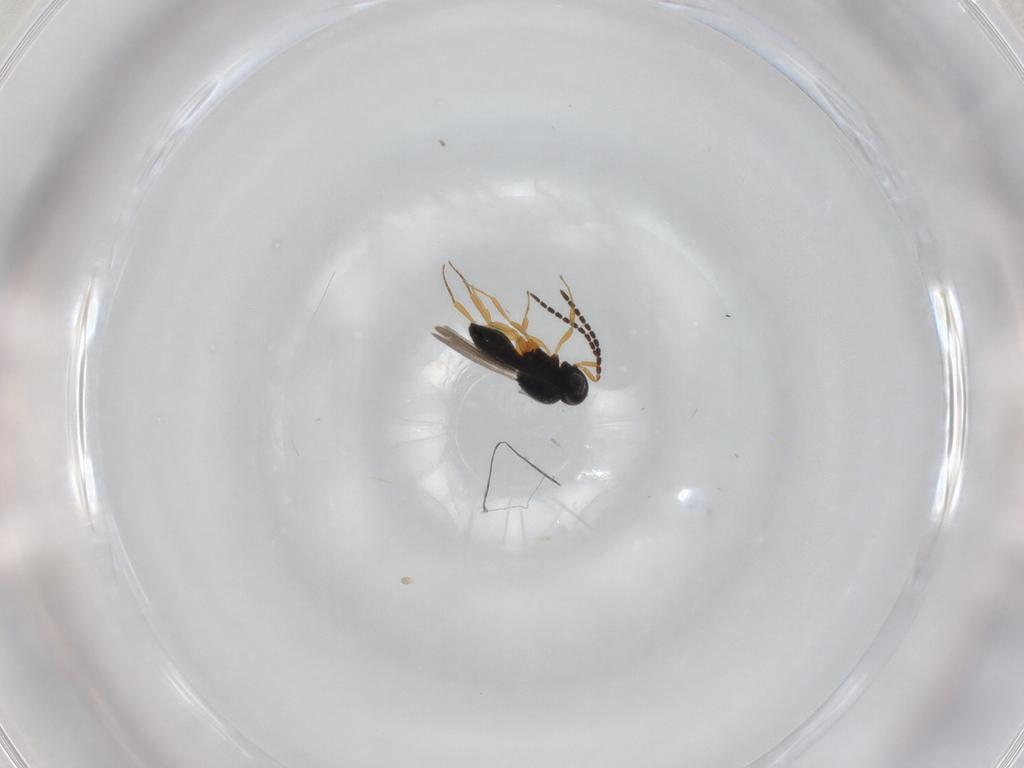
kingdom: Animalia
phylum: Arthropoda
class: Insecta
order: Hymenoptera
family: Scelionidae
